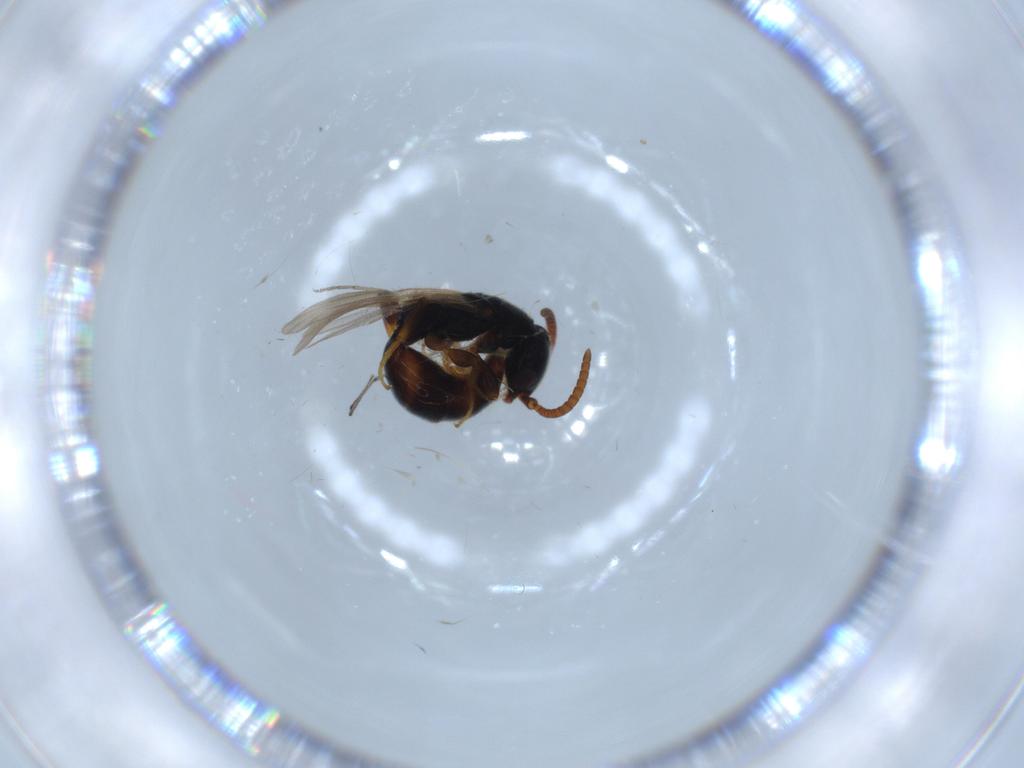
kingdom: Animalia
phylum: Arthropoda
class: Insecta
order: Hymenoptera
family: Bethylidae
